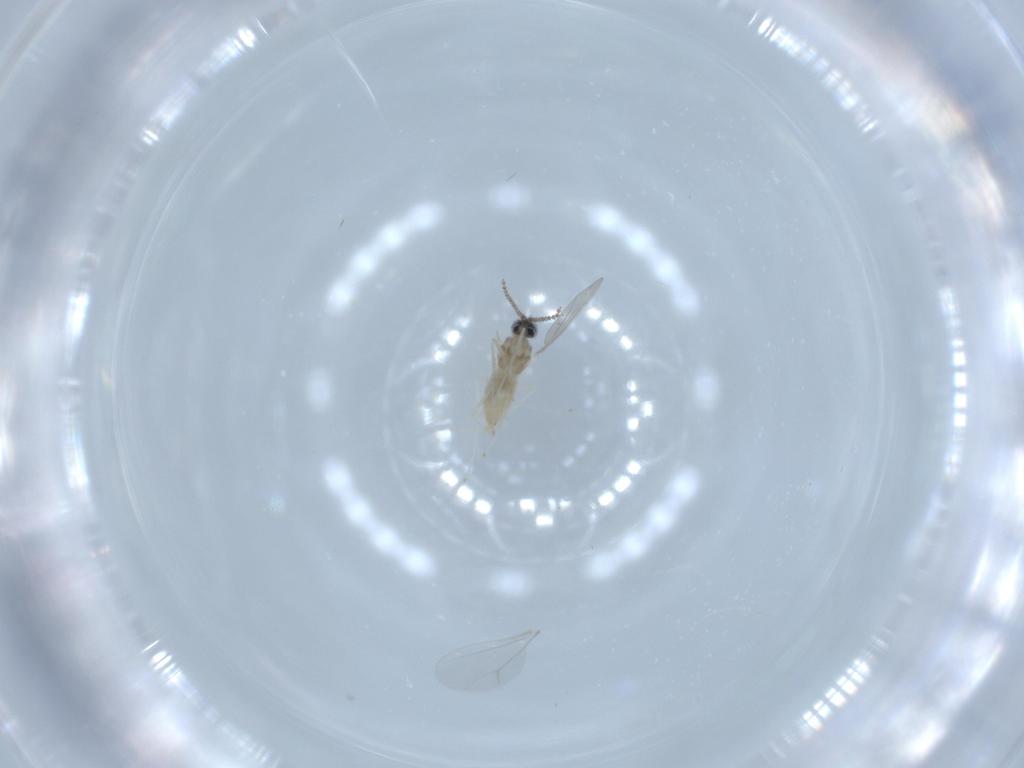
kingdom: Animalia
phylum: Arthropoda
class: Insecta
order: Diptera
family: Cecidomyiidae
